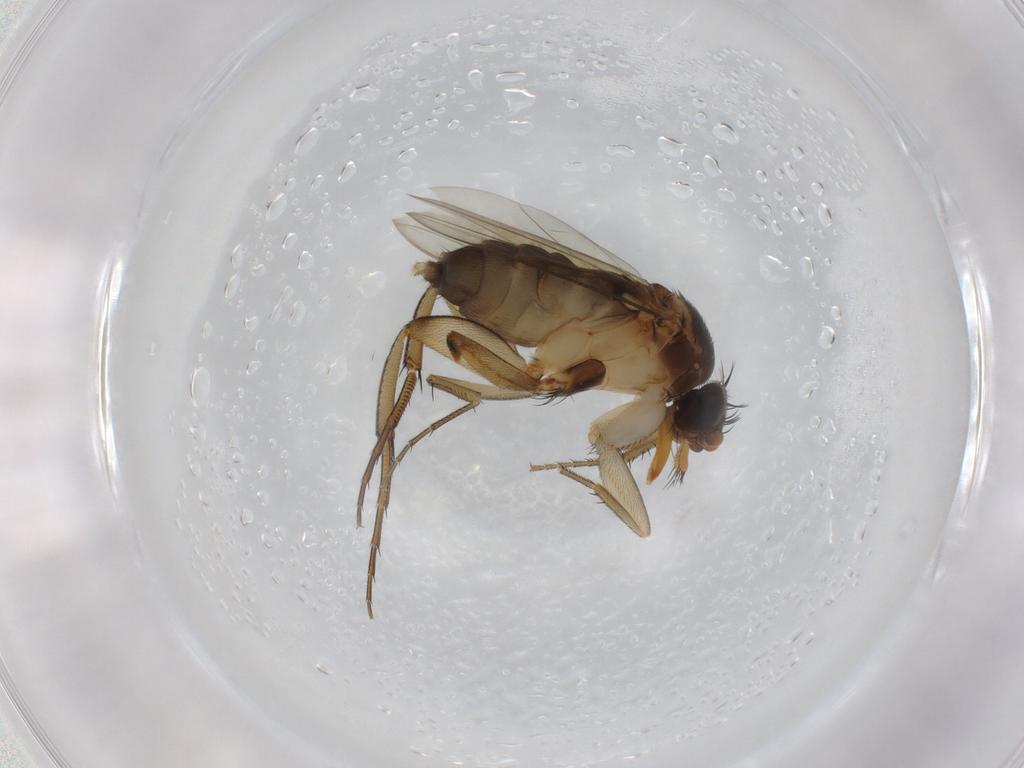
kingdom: Animalia
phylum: Arthropoda
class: Insecta
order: Diptera
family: Phoridae
